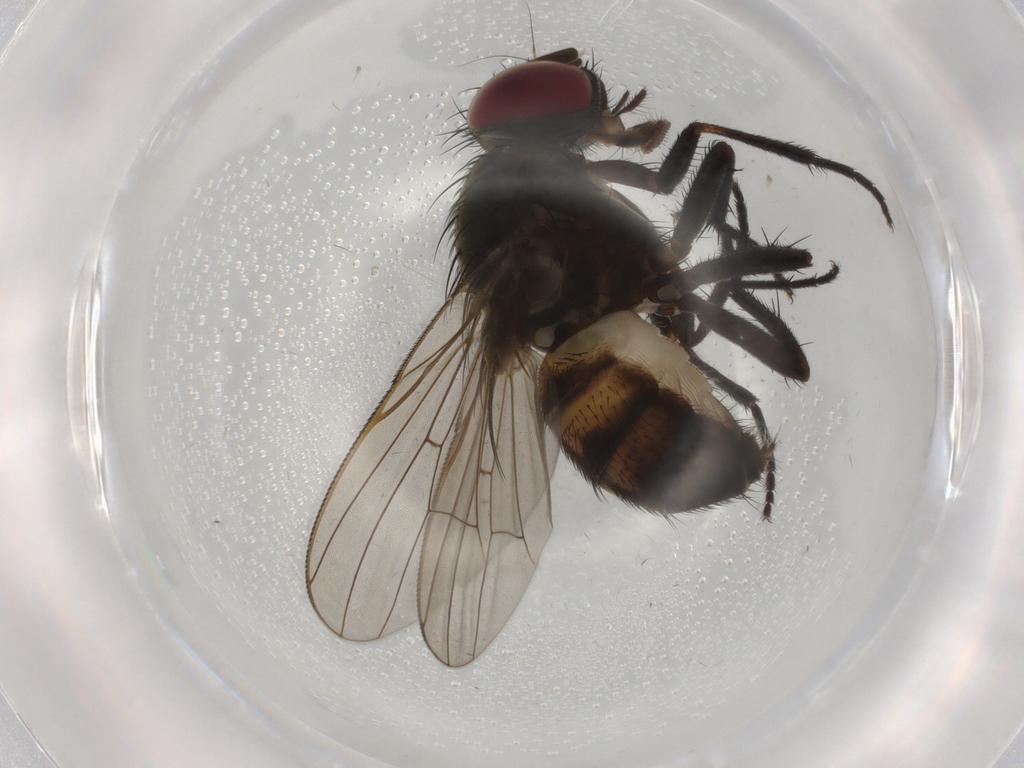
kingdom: Animalia
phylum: Arthropoda
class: Insecta
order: Diptera
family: Fannia
